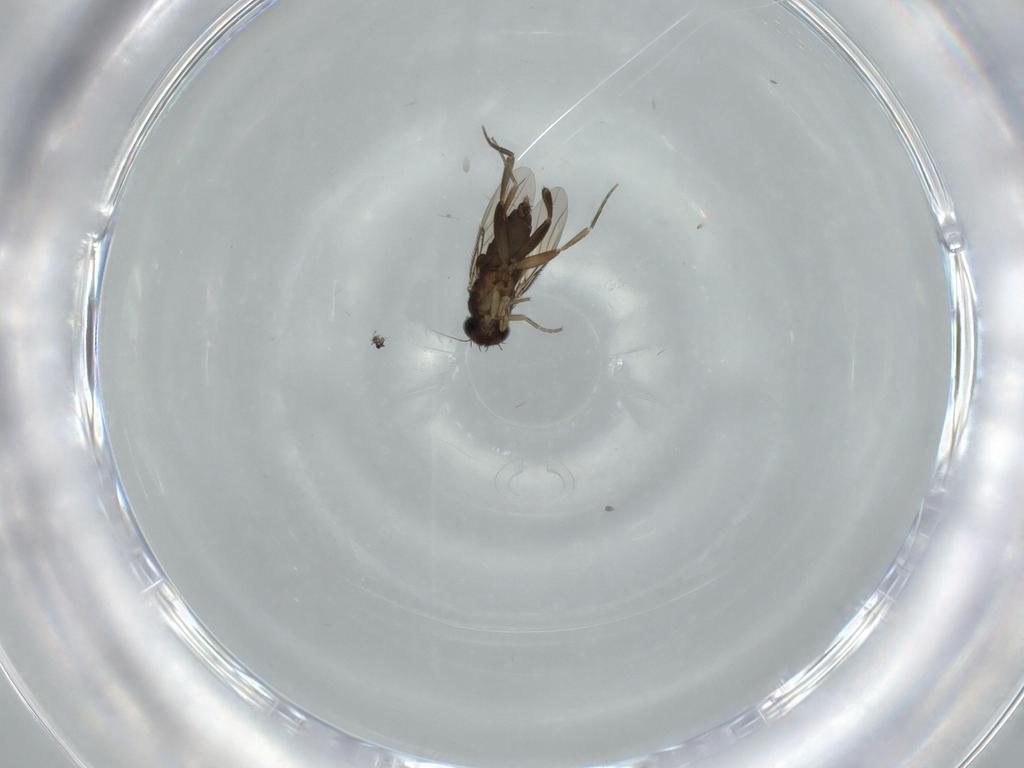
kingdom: Animalia
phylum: Arthropoda
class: Insecta
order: Diptera
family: Phoridae
